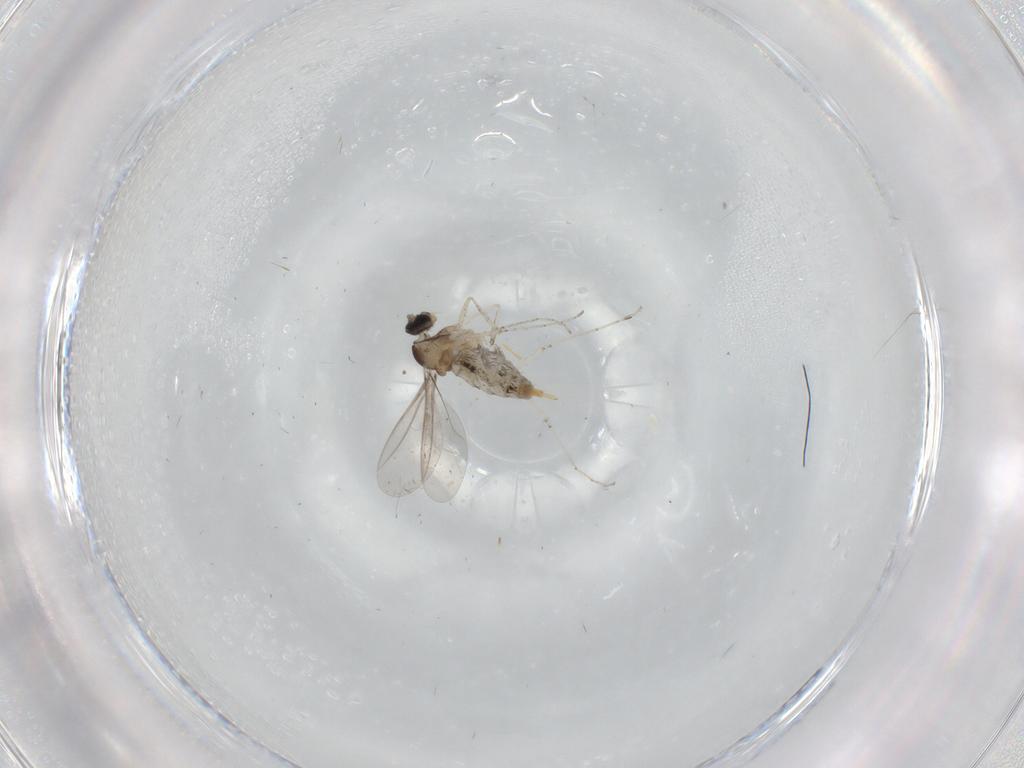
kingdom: Animalia
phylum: Arthropoda
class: Insecta
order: Diptera
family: Cecidomyiidae
